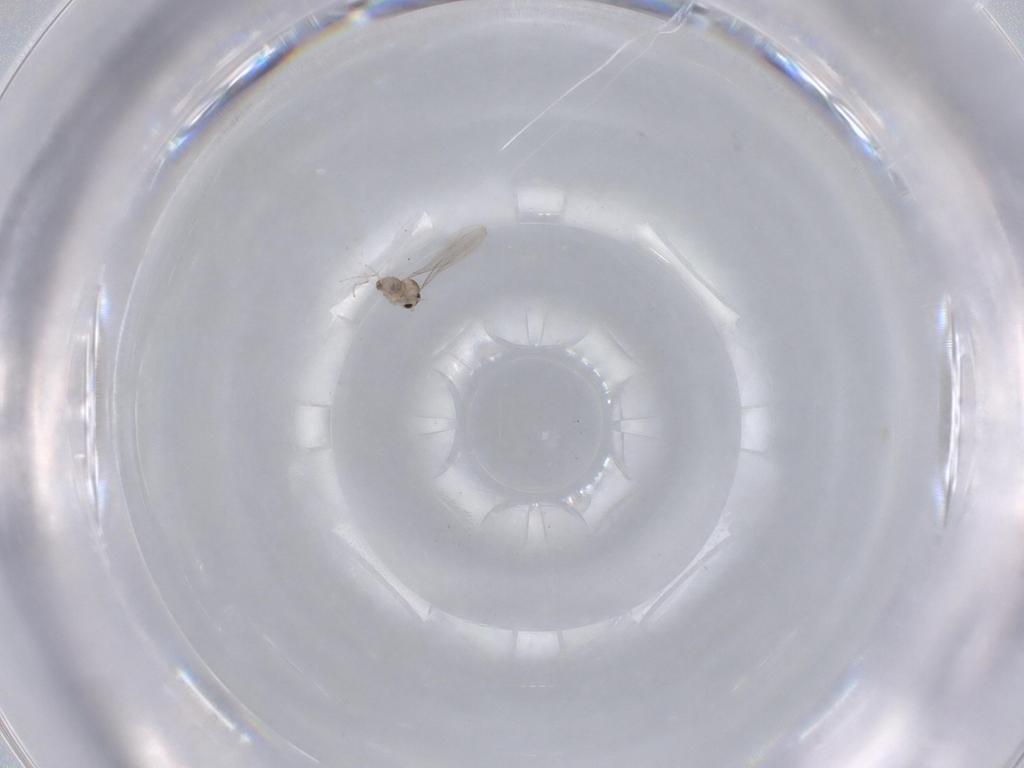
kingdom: Animalia
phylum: Arthropoda
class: Insecta
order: Diptera
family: Cecidomyiidae
